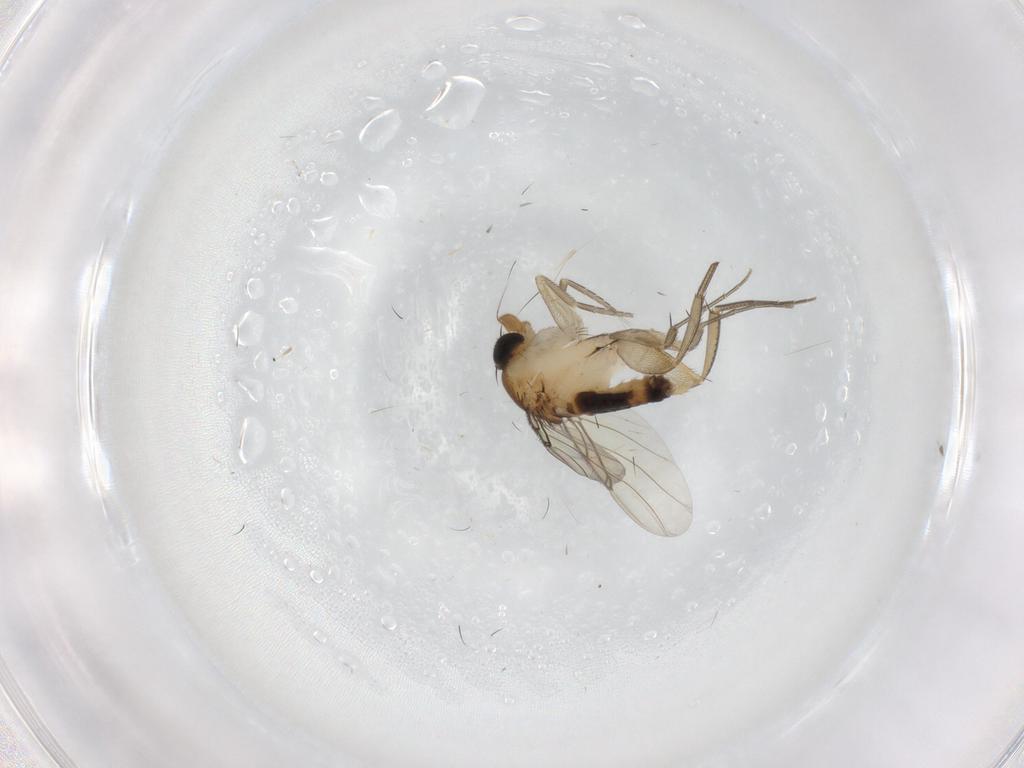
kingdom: Animalia
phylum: Arthropoda
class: Insecta
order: Diptera
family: Phoridae
